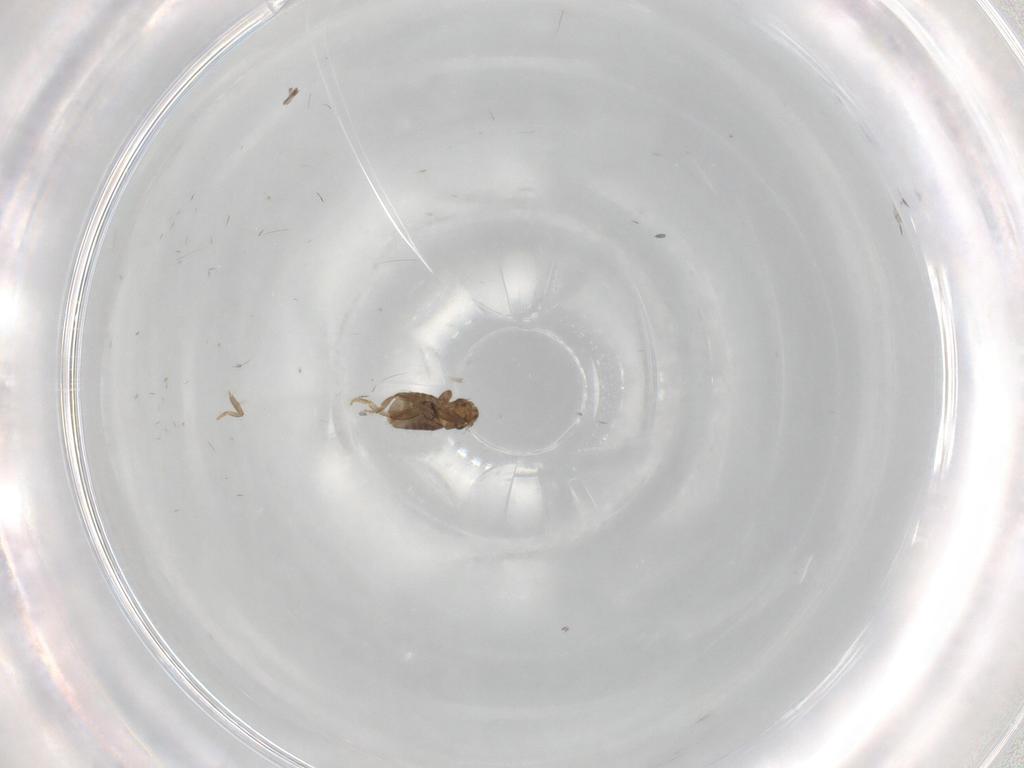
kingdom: Animalia
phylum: Arthropoda
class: Insecta
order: Diptera
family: Psychodidae
